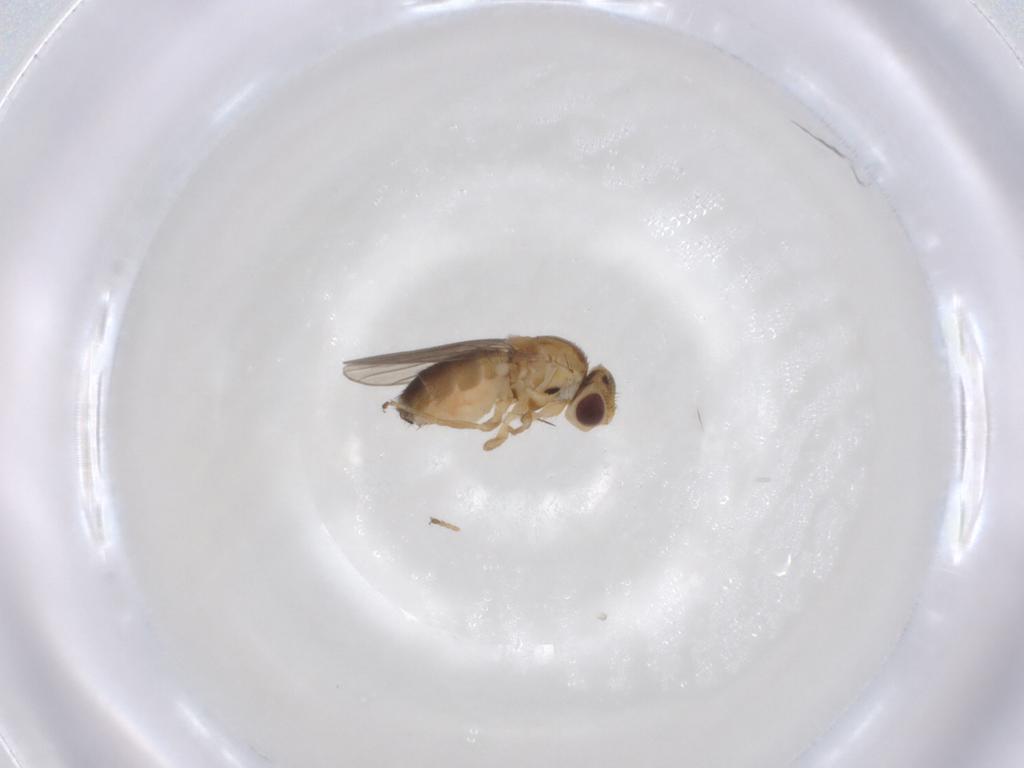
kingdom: Animalia
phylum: Arthropoda
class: Insecta
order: Diptera
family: Chloropidae
